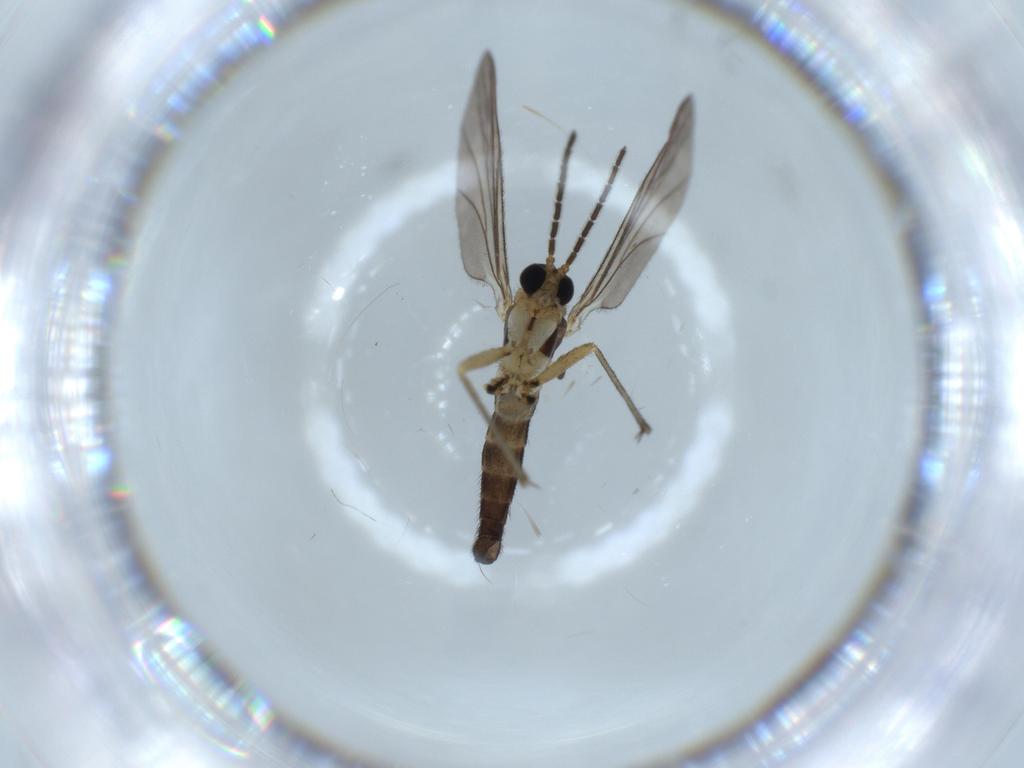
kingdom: Animalia
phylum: Arthropoda
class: Insecta
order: Diptera
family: Sciaridae
